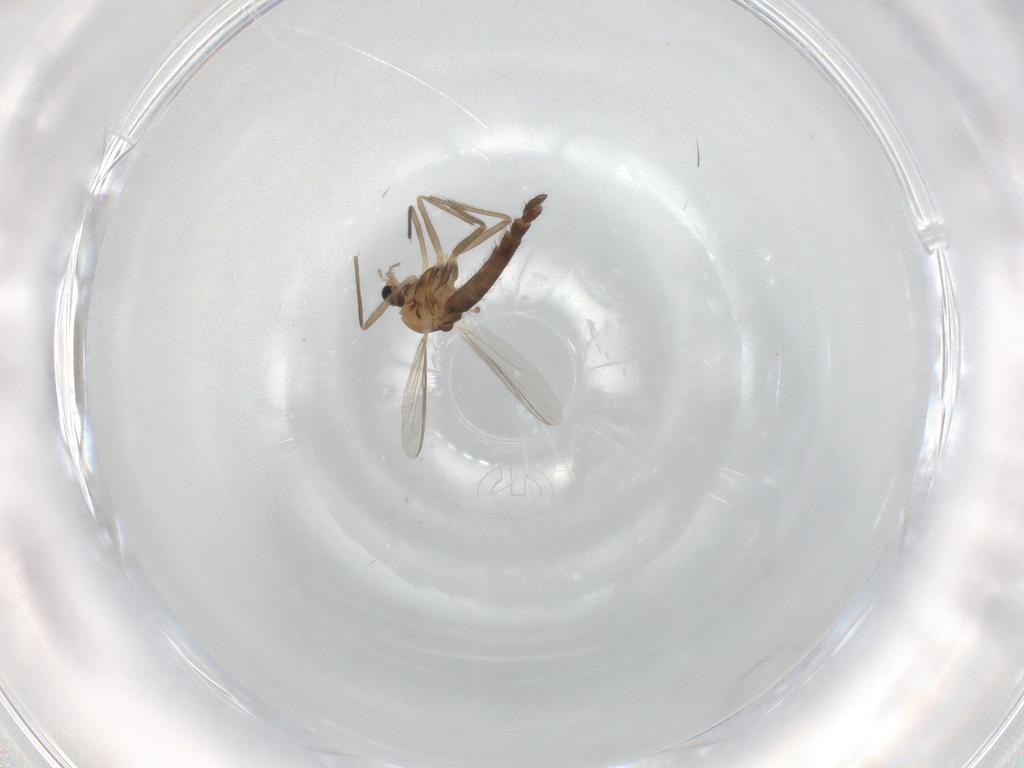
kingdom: Animalia
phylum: Arthropoda
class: Insecta
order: Diptera
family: Chironomidae
